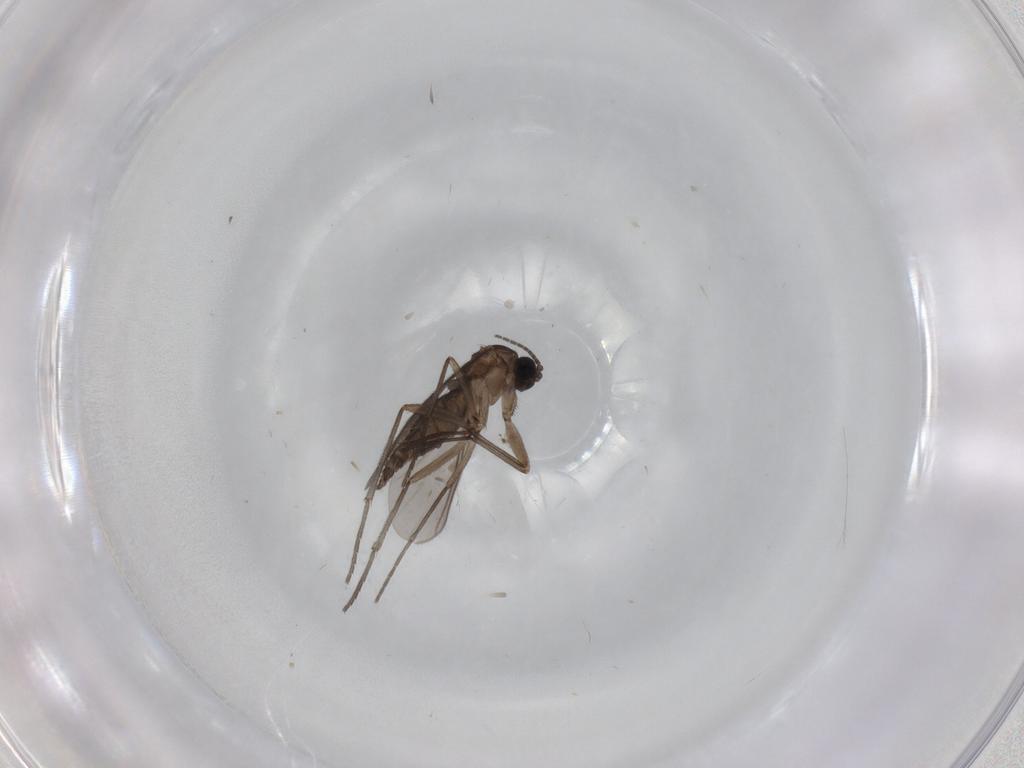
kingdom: Animalia
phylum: Arthropoda
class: Insecta
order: Diptera
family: Sciaridae
